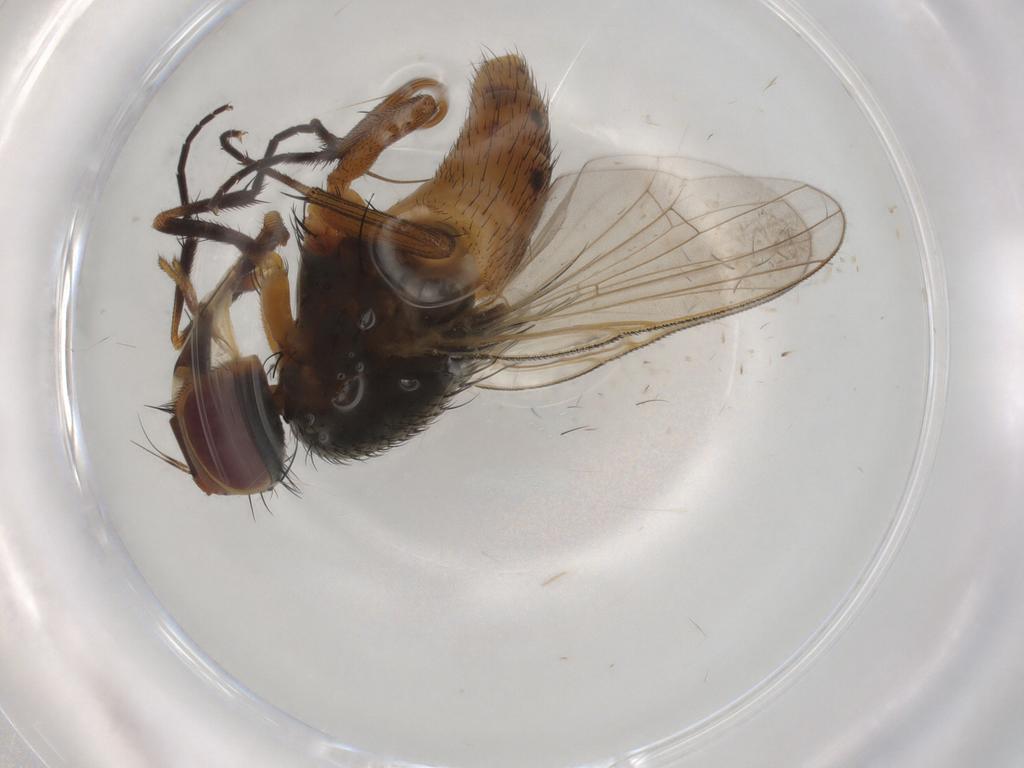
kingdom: Animalia
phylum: Arthropoda
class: Insecta
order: Diptera
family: Muscidae
